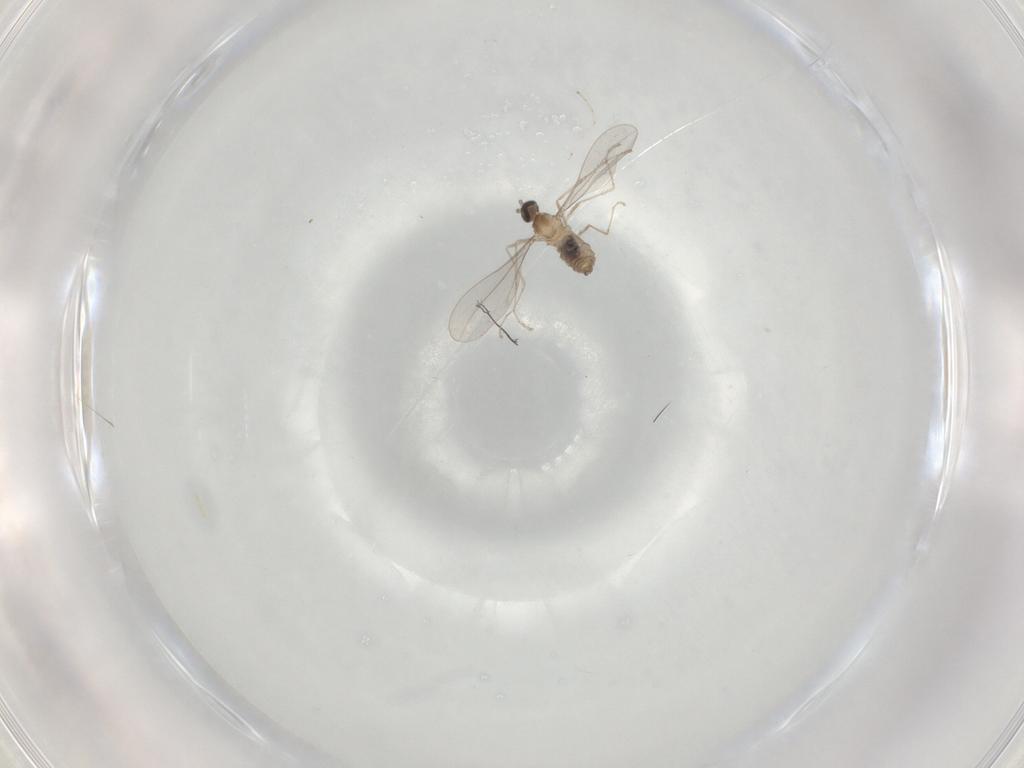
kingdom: Animalia
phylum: Arthropoda
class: Insecta
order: Diptera
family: Cecidomyiidae
